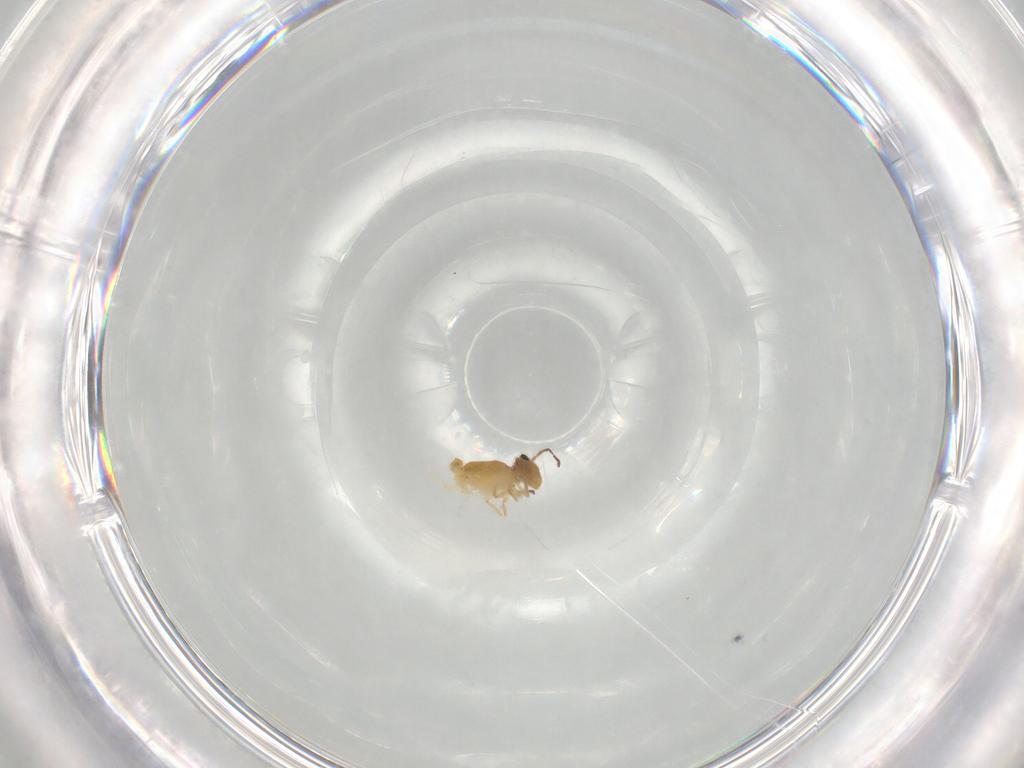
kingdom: Animalia
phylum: Arthropoda
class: Collembola
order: Symphypleona
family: Bourletiellidae
